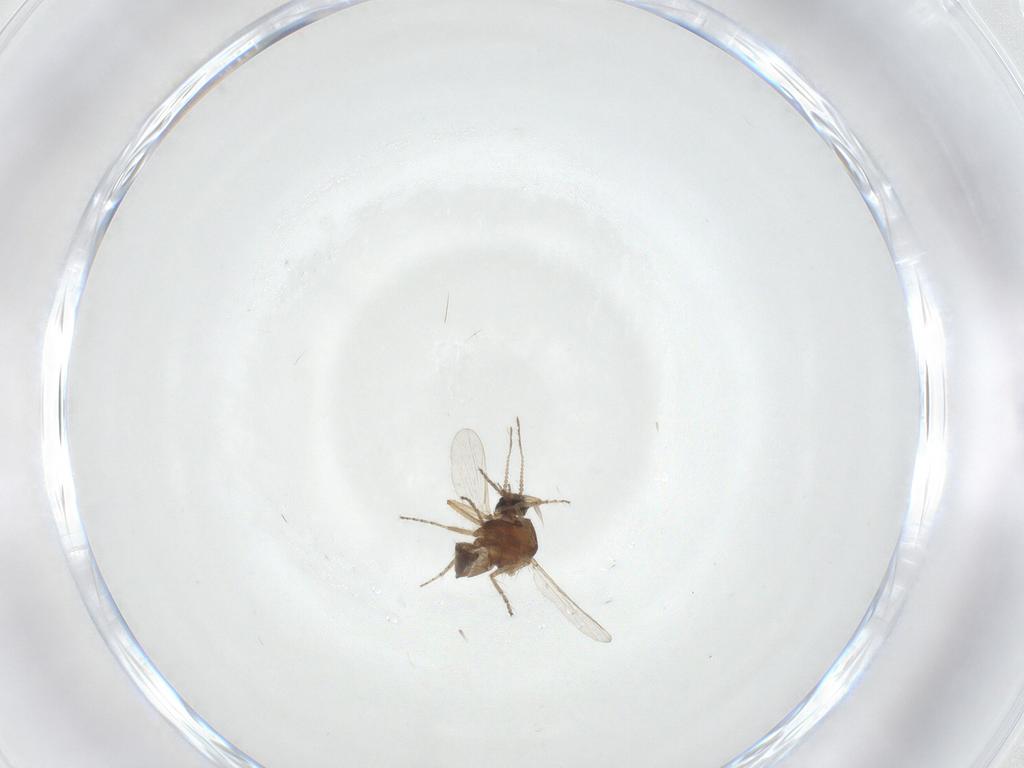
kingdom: Animalia
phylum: Arthropoda
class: Insecta
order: Diptera
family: Ceratopogonidae
